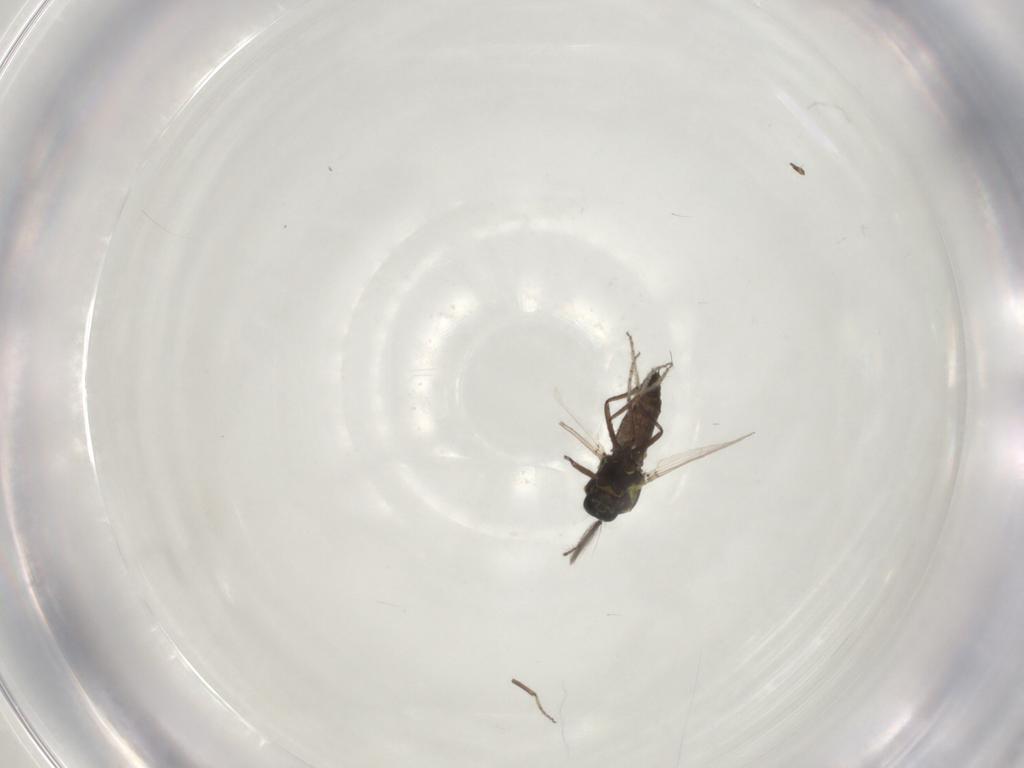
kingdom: Animalia
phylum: Arthropoda
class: Insecta
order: Diptera
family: Ceratopogonidae
